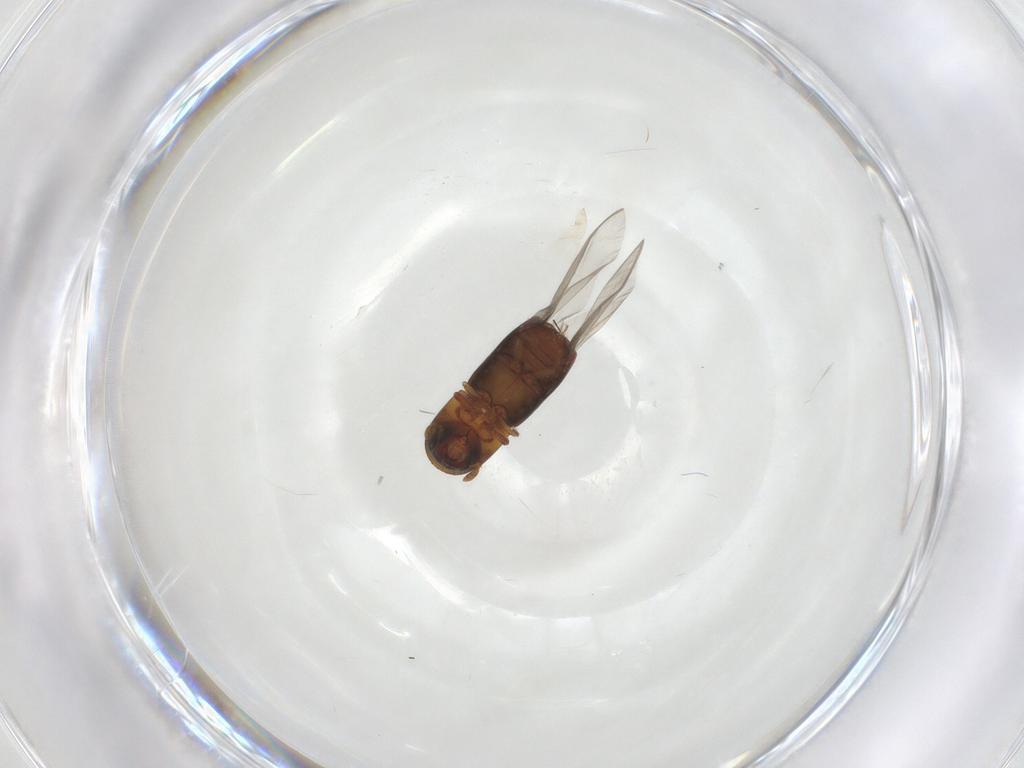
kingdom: Animalia
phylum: Arthropoda
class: Insecta
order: Coleoptera
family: Curculionidae
